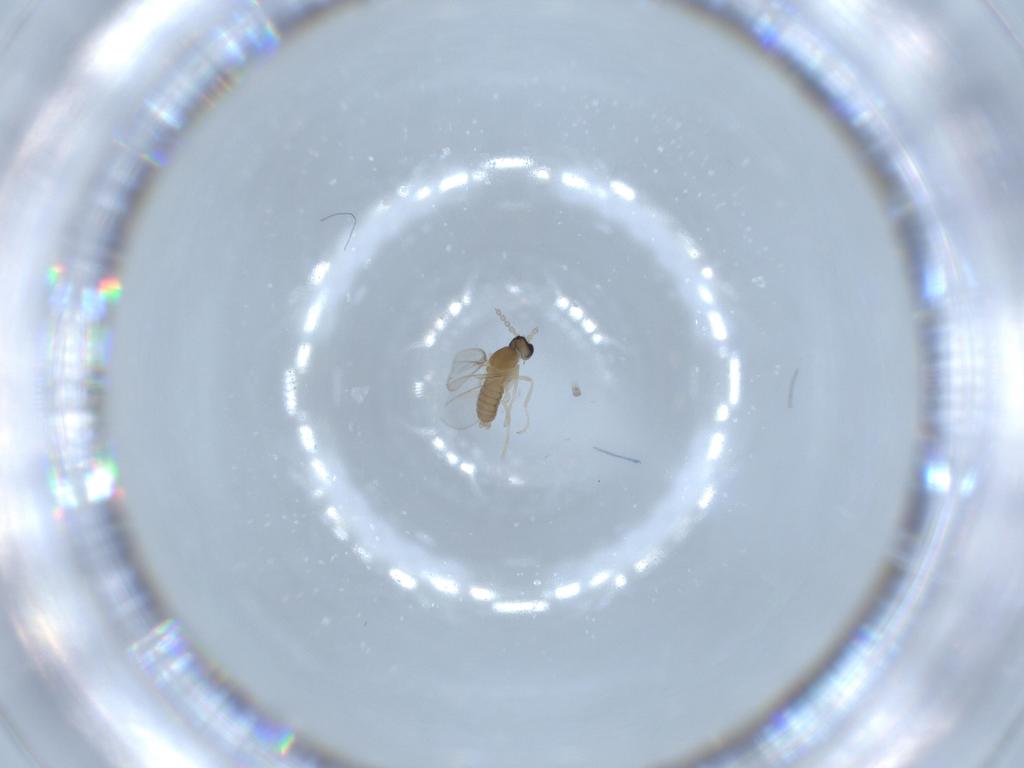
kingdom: Animalia
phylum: Arthropoda
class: Insecta
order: Diptera
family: Cecidomyiidae
